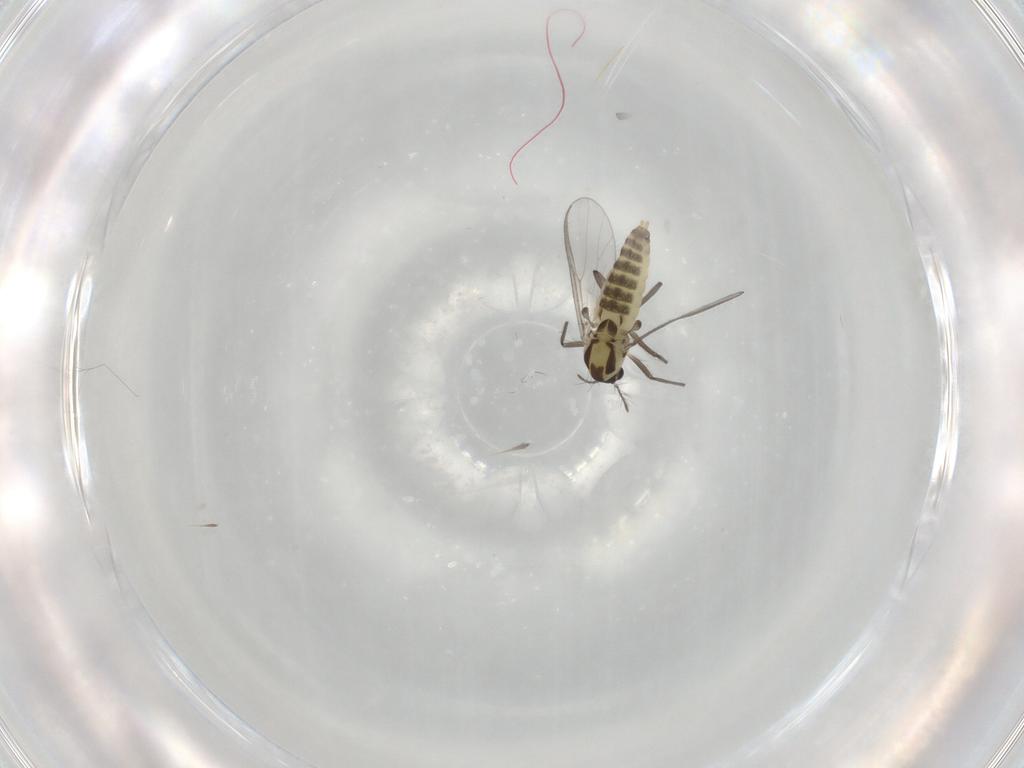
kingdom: Animalia
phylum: Arthropoda
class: Insecta
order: Diptera
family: Chironomidae
